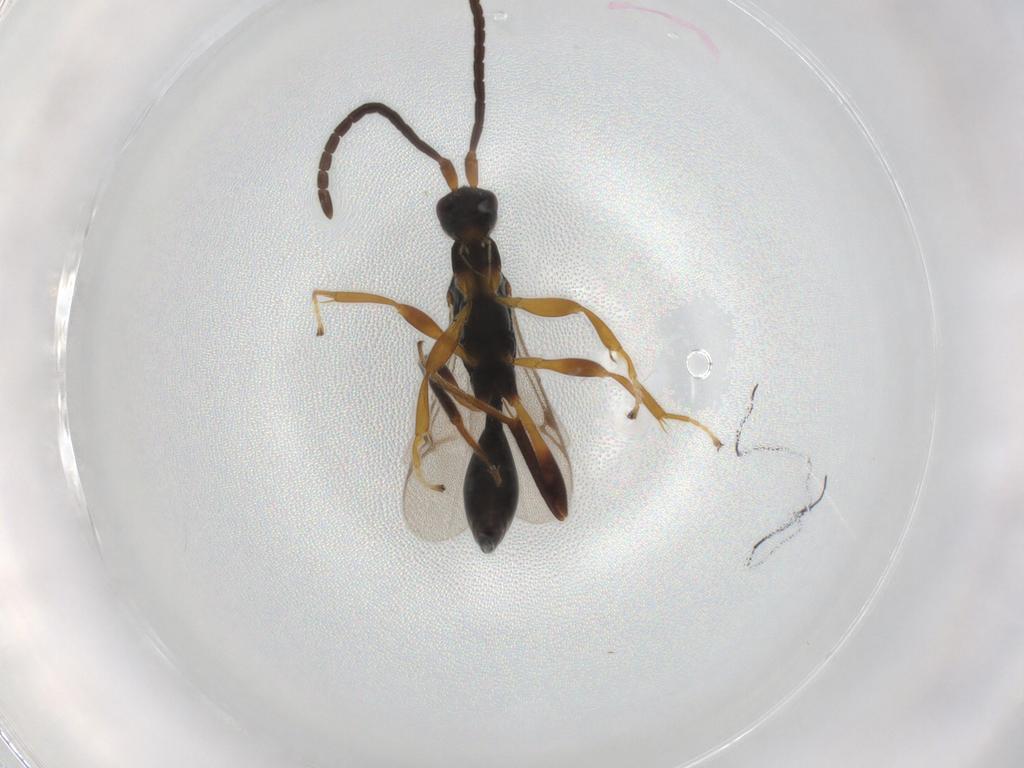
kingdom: Animalia
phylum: Arthropoda
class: Insecta
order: Hymenoptera
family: Proctotrupidae
